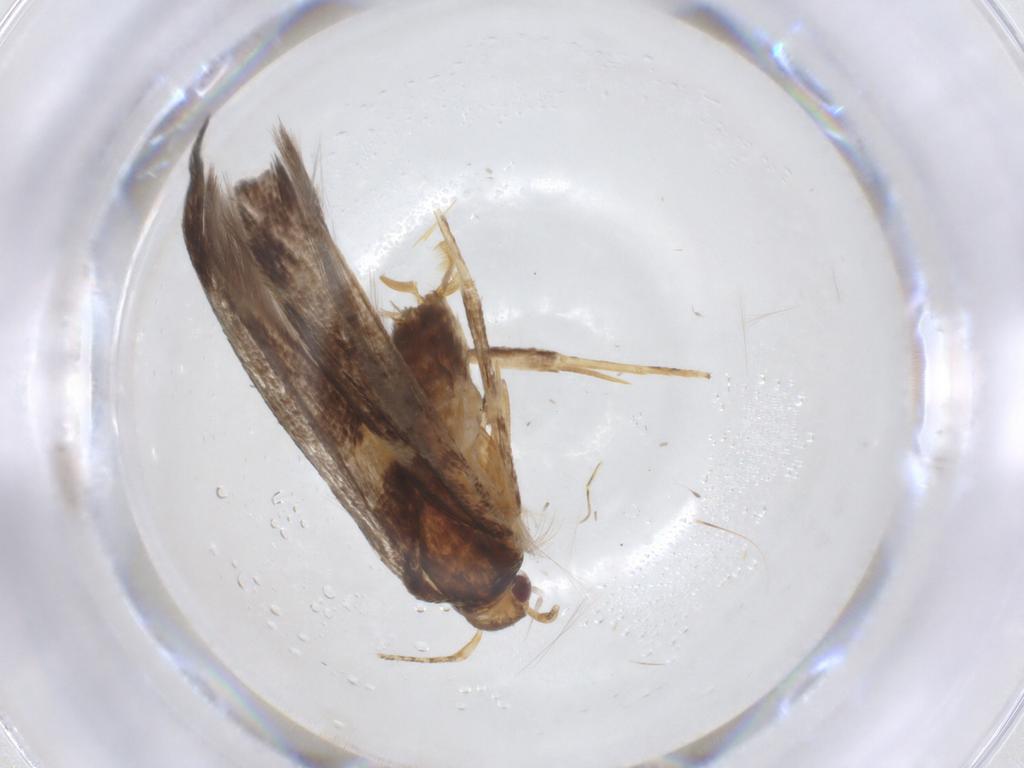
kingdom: Animalia
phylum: Arthropoda
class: Insecta
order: Lepidoptera
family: Cosmopterigidae
